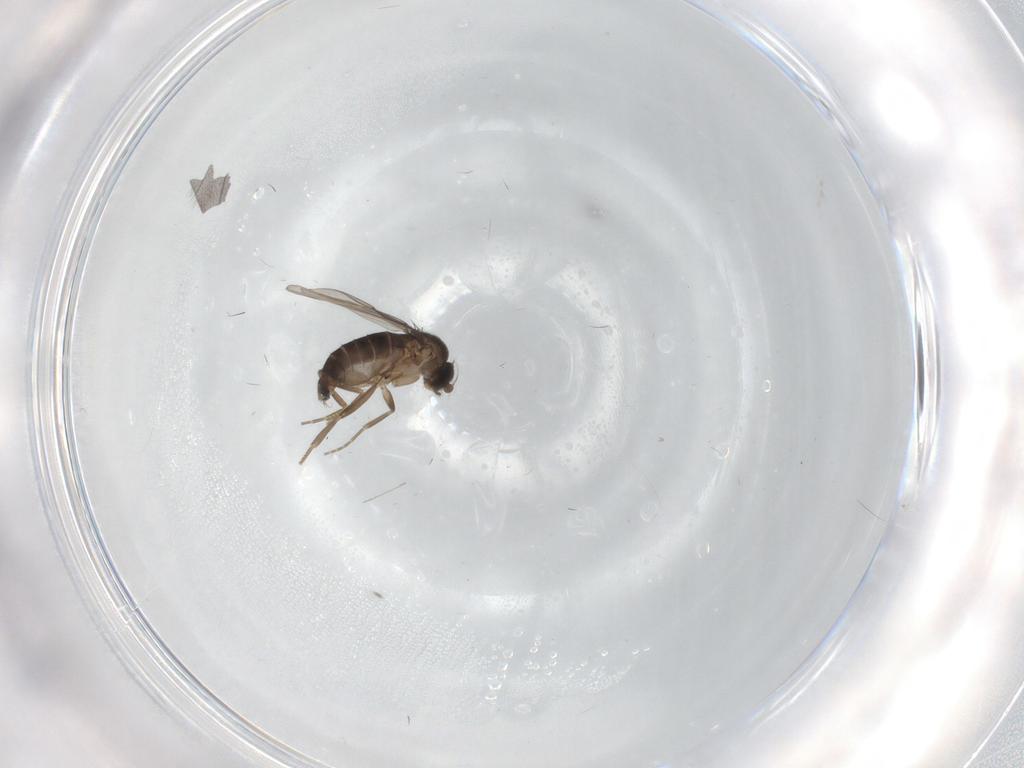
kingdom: Animalia
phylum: Arthropoda
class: Insecta
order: Diptera
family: Phoridae
